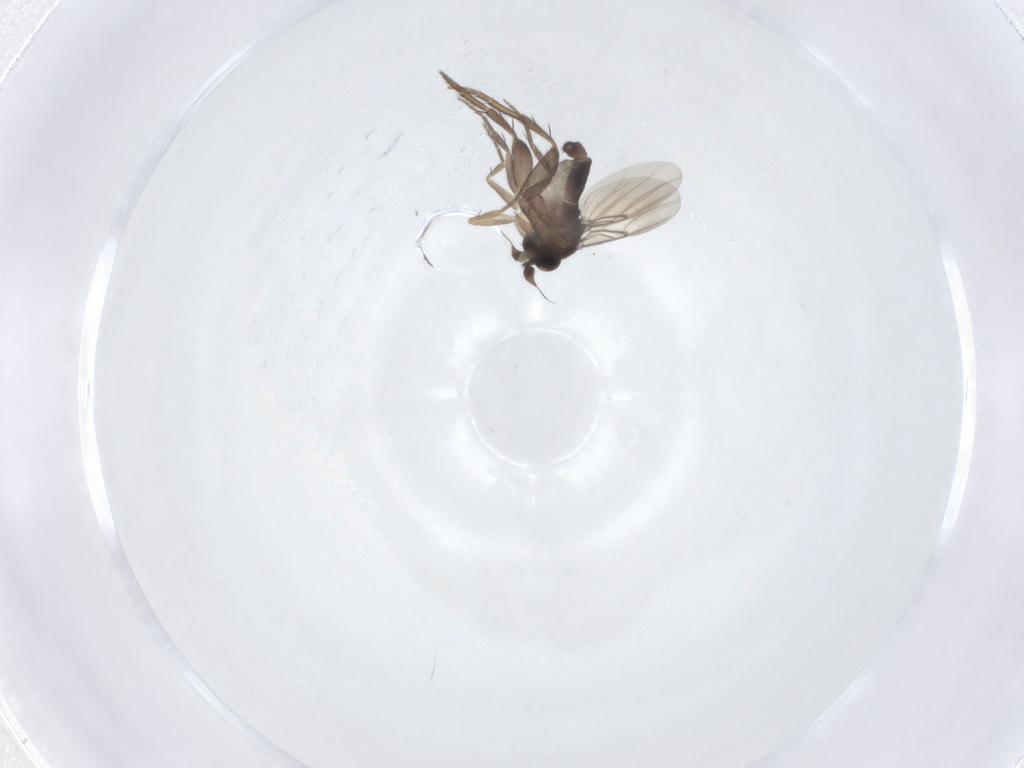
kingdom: Animalia
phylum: Arthropoda
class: Insecta
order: Diptera
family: Phoridae
